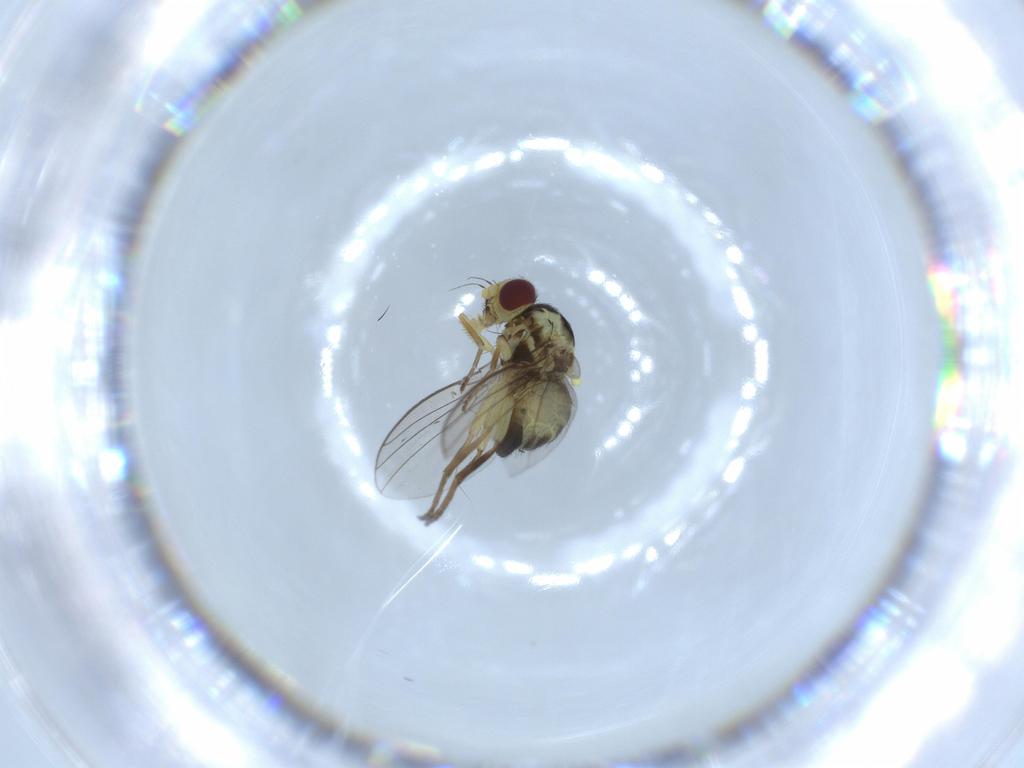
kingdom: Animalia
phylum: Arthropoda
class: Insecta
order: Diptera
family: Agromyzidae
